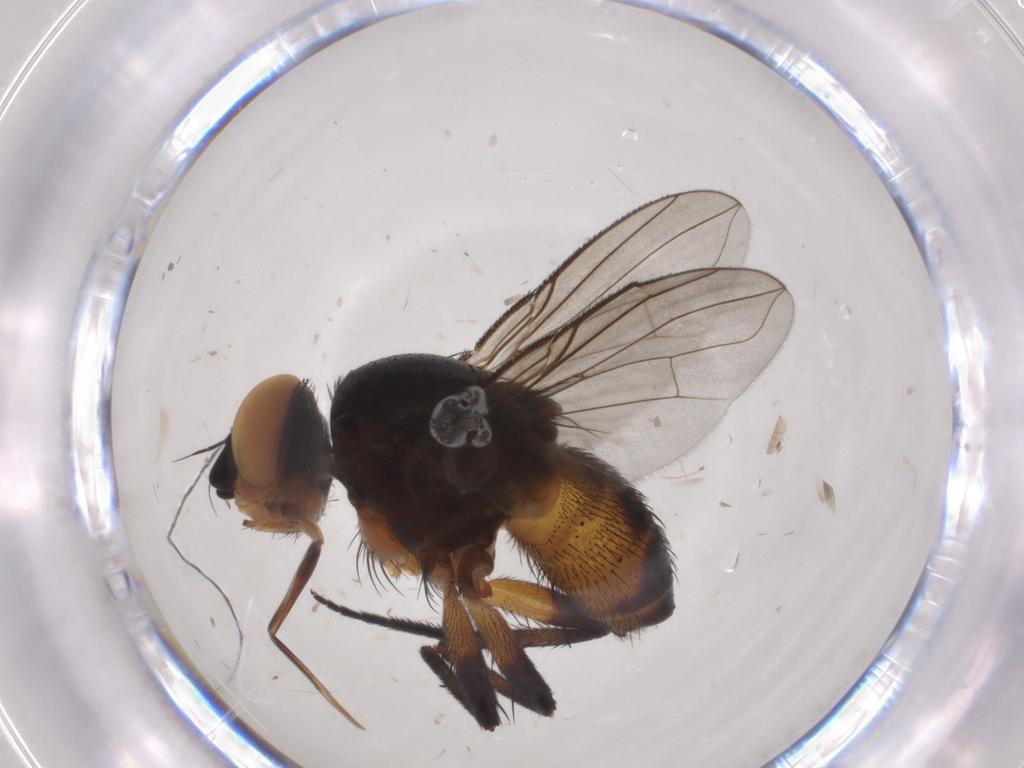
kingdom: Animalia
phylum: Arthropoda
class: Insecta
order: Diptera
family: Tachinidae
